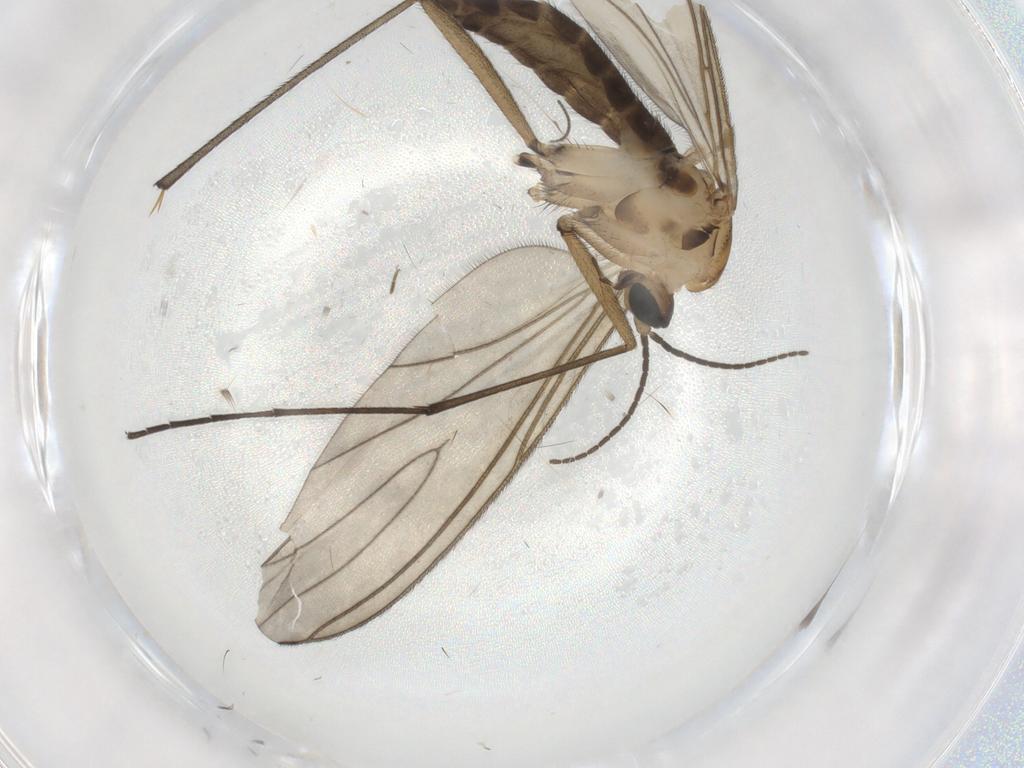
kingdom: Animalia
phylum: Arthropoda
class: Insecta
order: Diptera
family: Sciaridae
